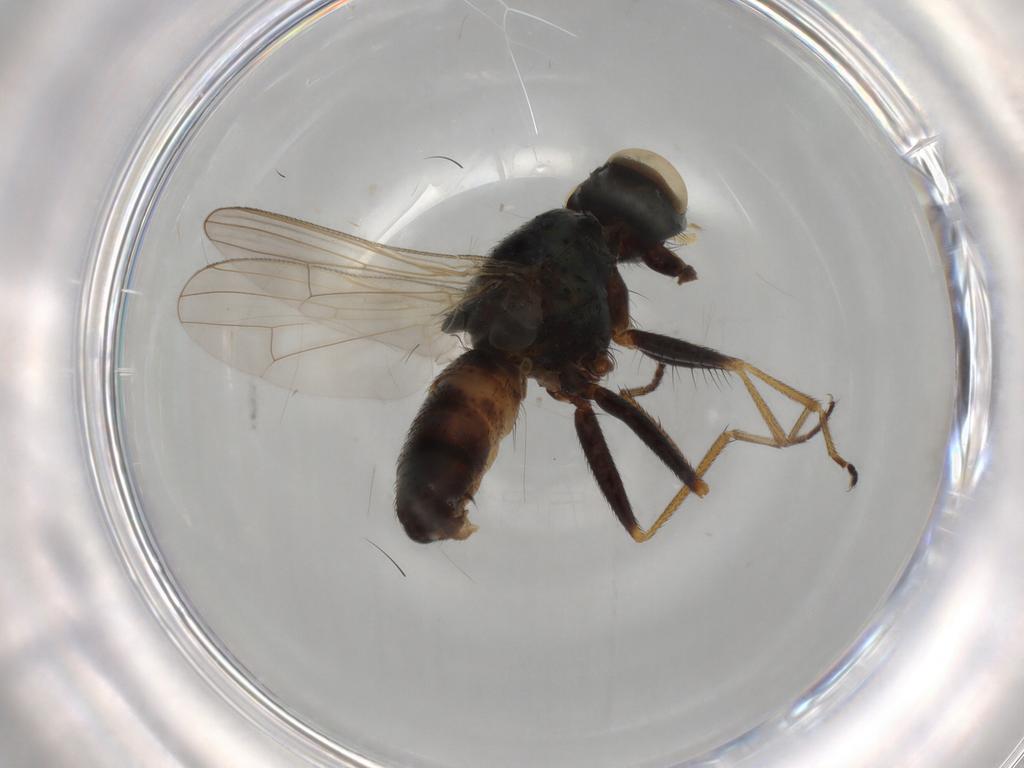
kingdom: Animalia
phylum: Arthropoda
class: Insecta
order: Diptera
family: Muscidae
